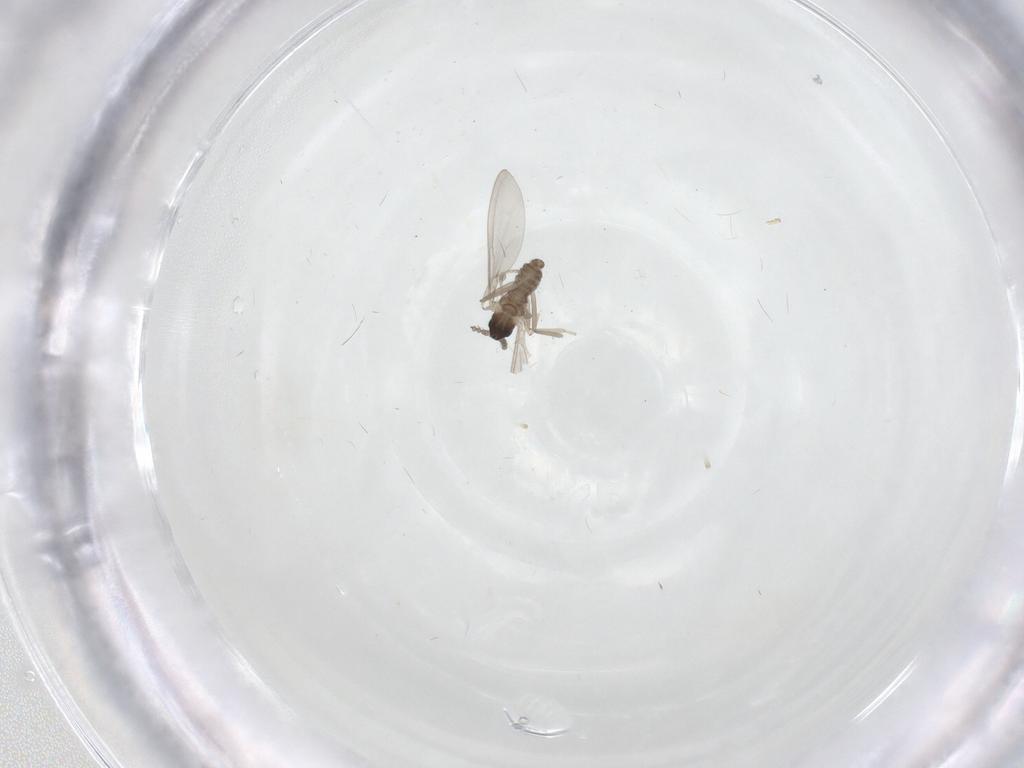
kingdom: Animalia
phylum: Arthropoda
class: Insecta
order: Diptera
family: Cecidomyiidae
